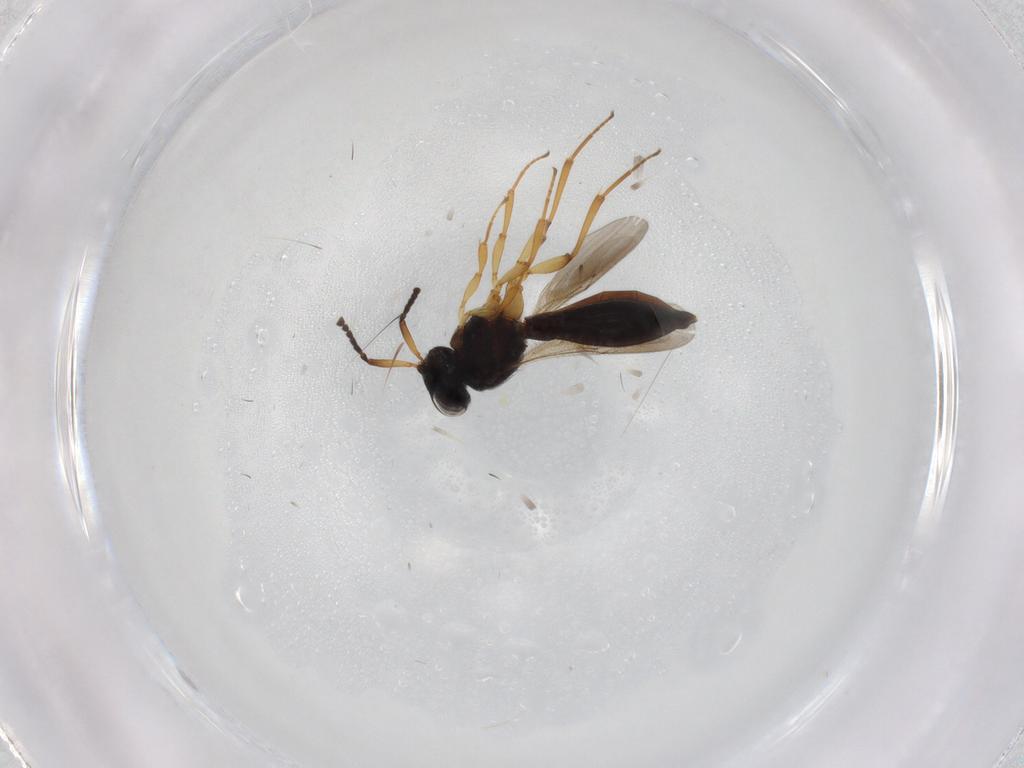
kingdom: Animalia
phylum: Arthropoda
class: Insecta
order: Hymenoptera
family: Scelionidae
